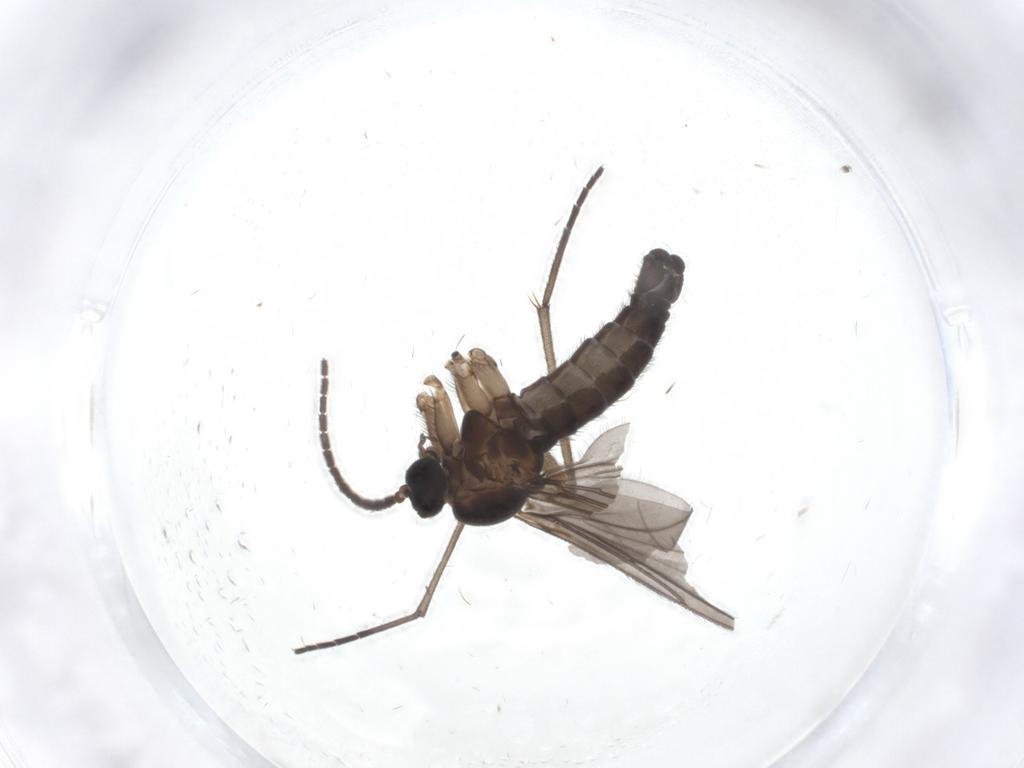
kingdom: Animalia
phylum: Arthropoda
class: Insecta
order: Diptera
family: Sciaridae
